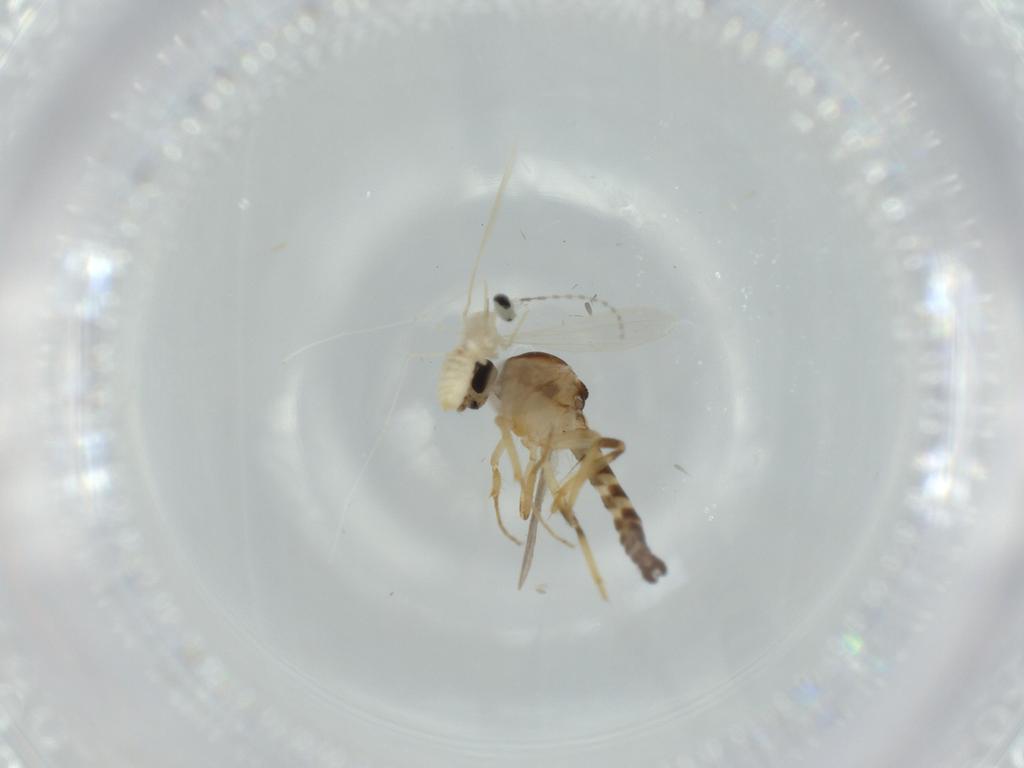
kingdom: Animalia
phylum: Arthropoda
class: Insecta
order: Diptera
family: Ceratopogonidae
